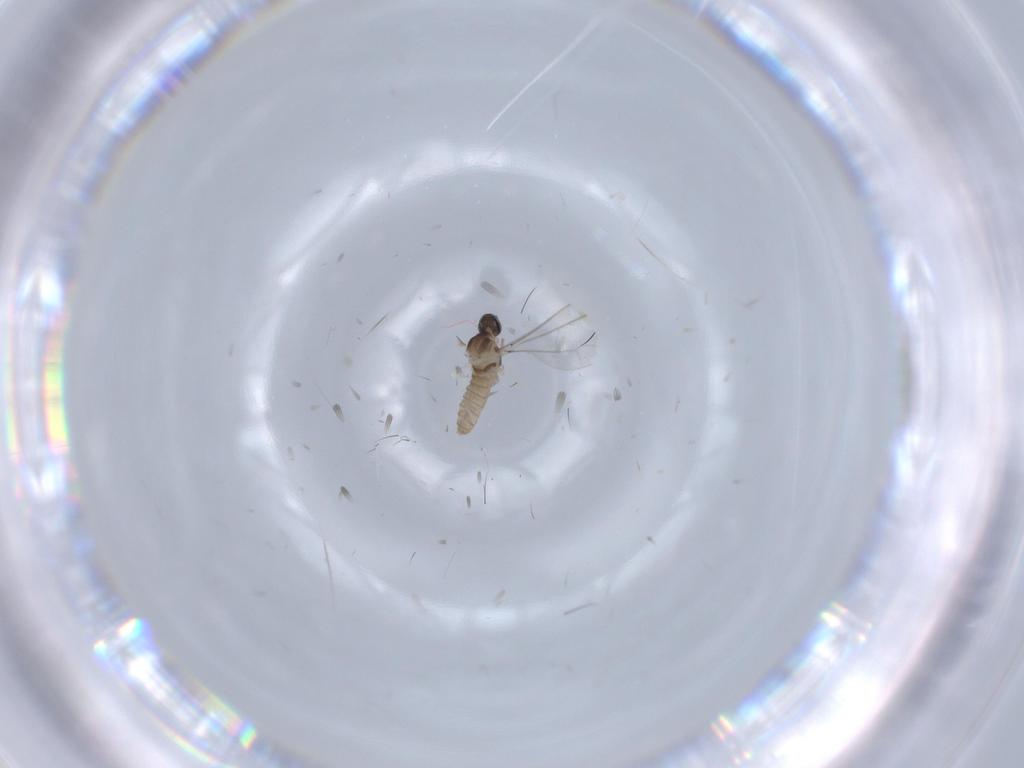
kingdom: Animalia
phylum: Arthropoda
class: Insecta
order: Diptera
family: Cecidomyiidae
